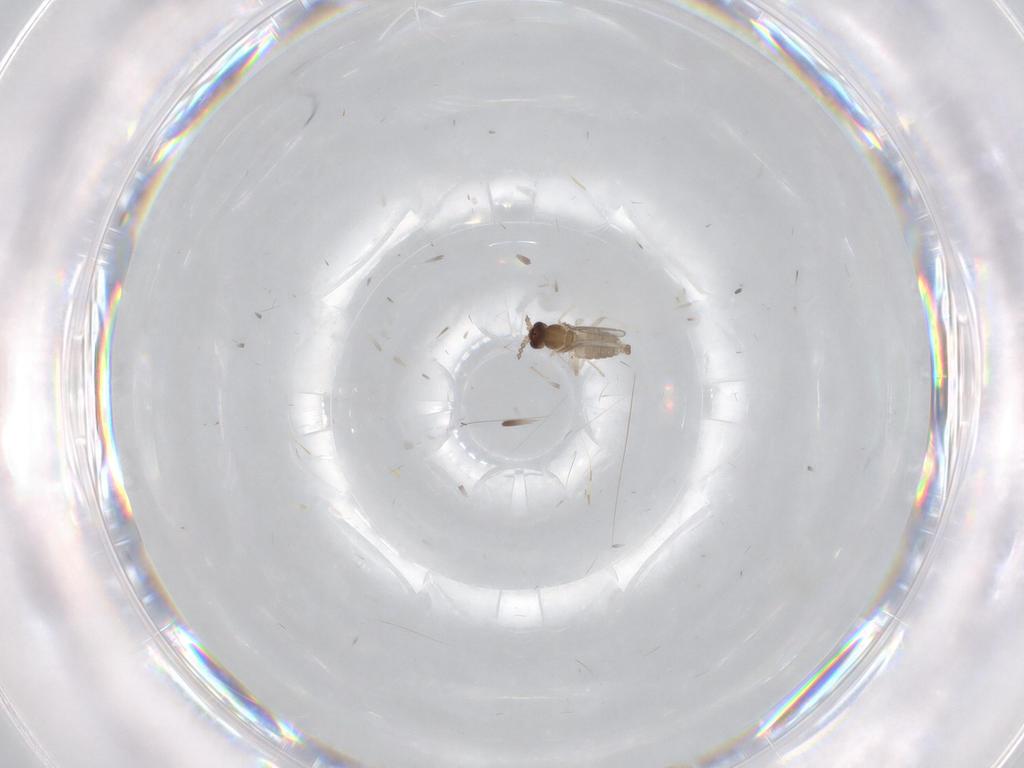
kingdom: Animalia
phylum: Arthropoda
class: Insecta
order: Diptera
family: Cecidomyiidae
